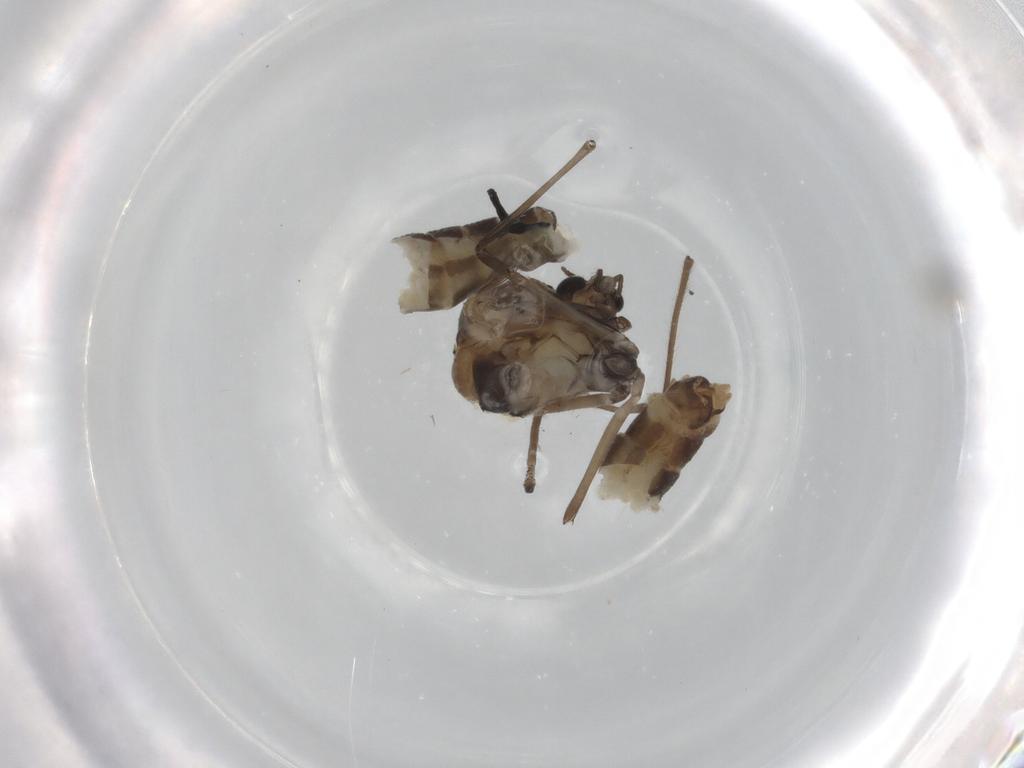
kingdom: Animalia
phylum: Arthropoda
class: Insecta
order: Diptera
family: Chironomidae
